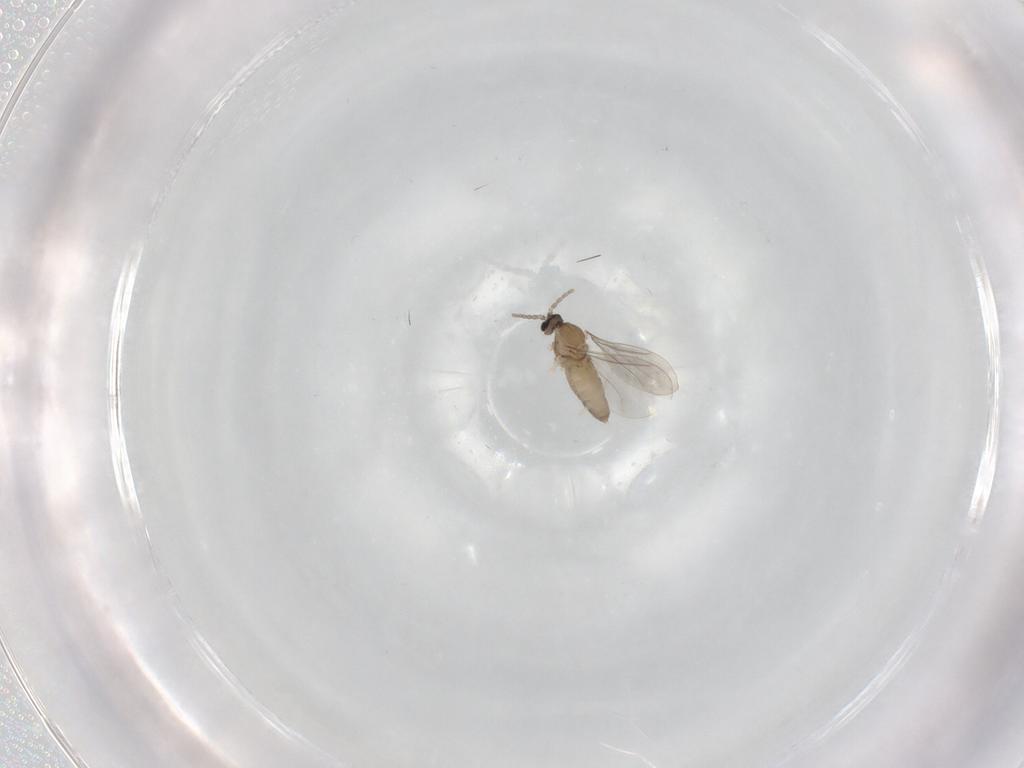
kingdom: Animalia
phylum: Arthropoda
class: Insecta
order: Diptera
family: Cecidomyiidae
